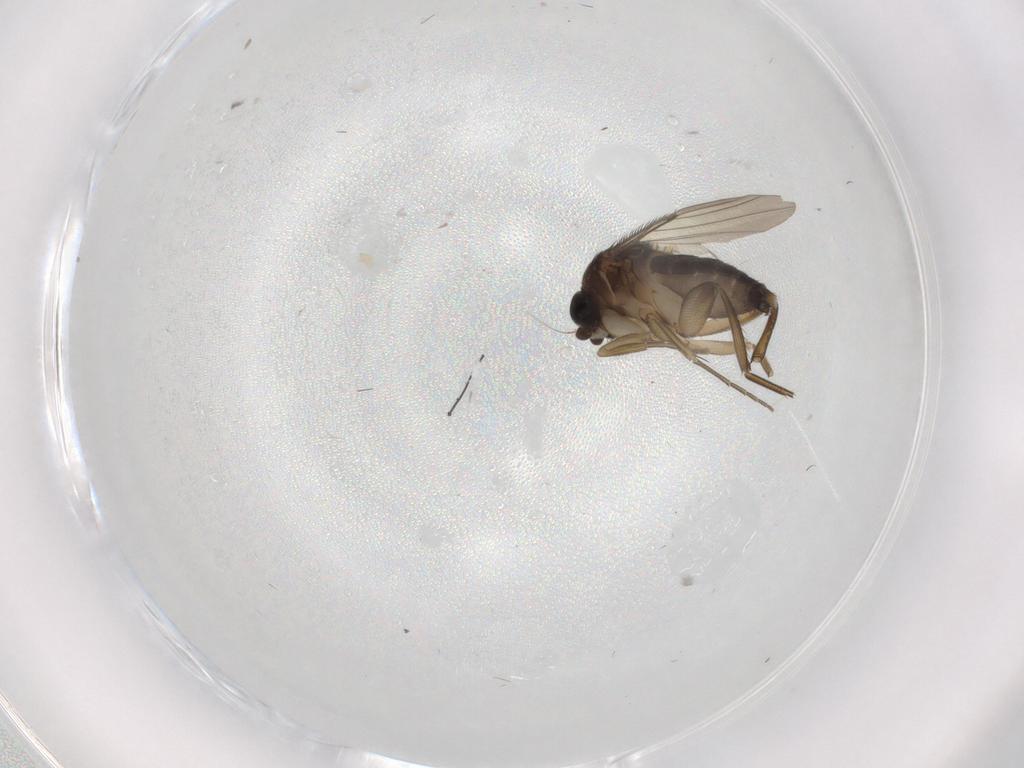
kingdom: Animalia
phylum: Arthropoda
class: Insecta
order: Diptera
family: Phoridae
